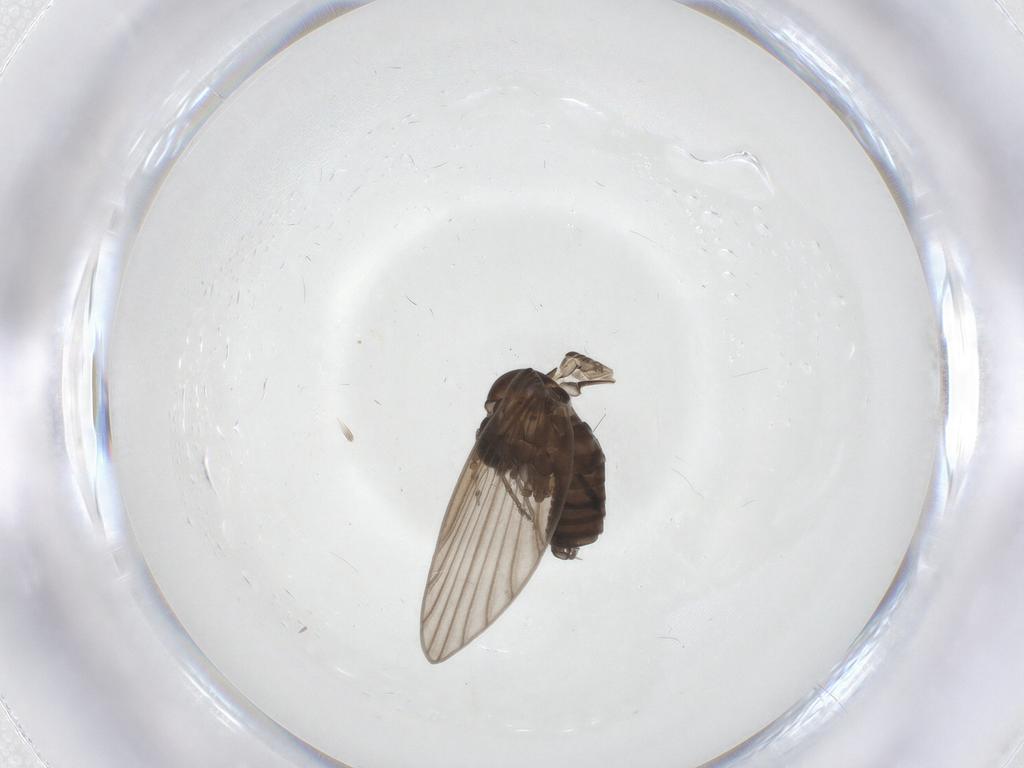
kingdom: Animalia
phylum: Arthropoda
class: Insecta
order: Diptera
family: Psychodidae
